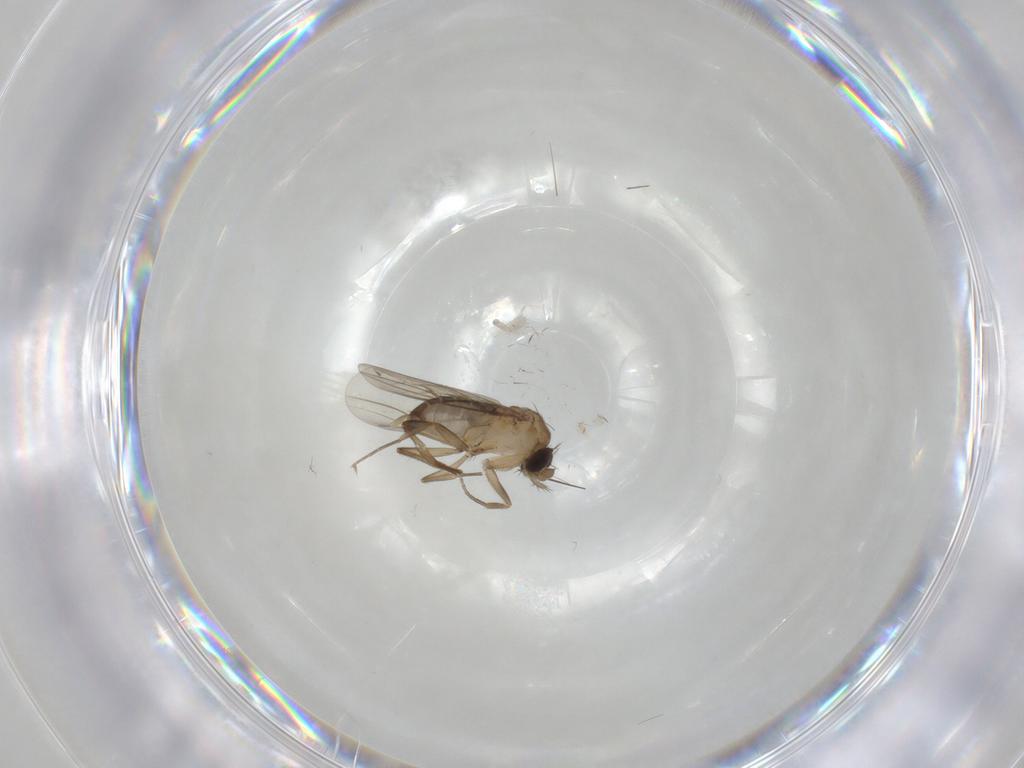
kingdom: Animalia
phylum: Arthropoda
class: Insecta
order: Diptera
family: Cecidomyiidae
